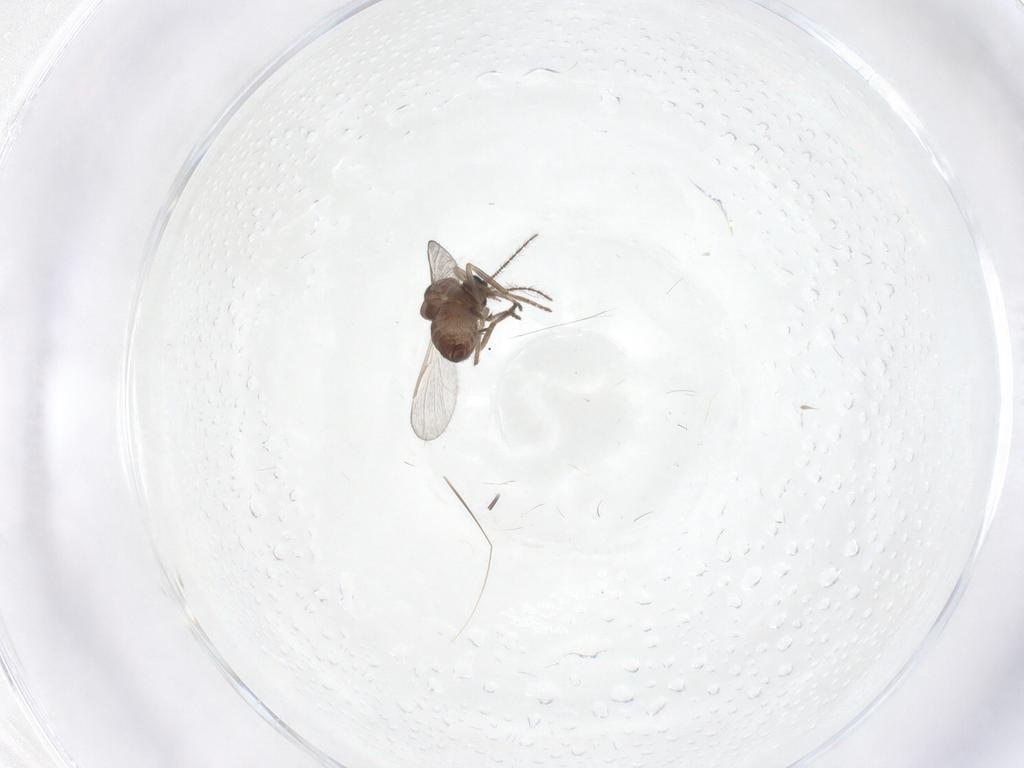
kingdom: Animalia
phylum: Arthropoda
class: Insecta
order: Diptera
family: Ceratopogonidae
